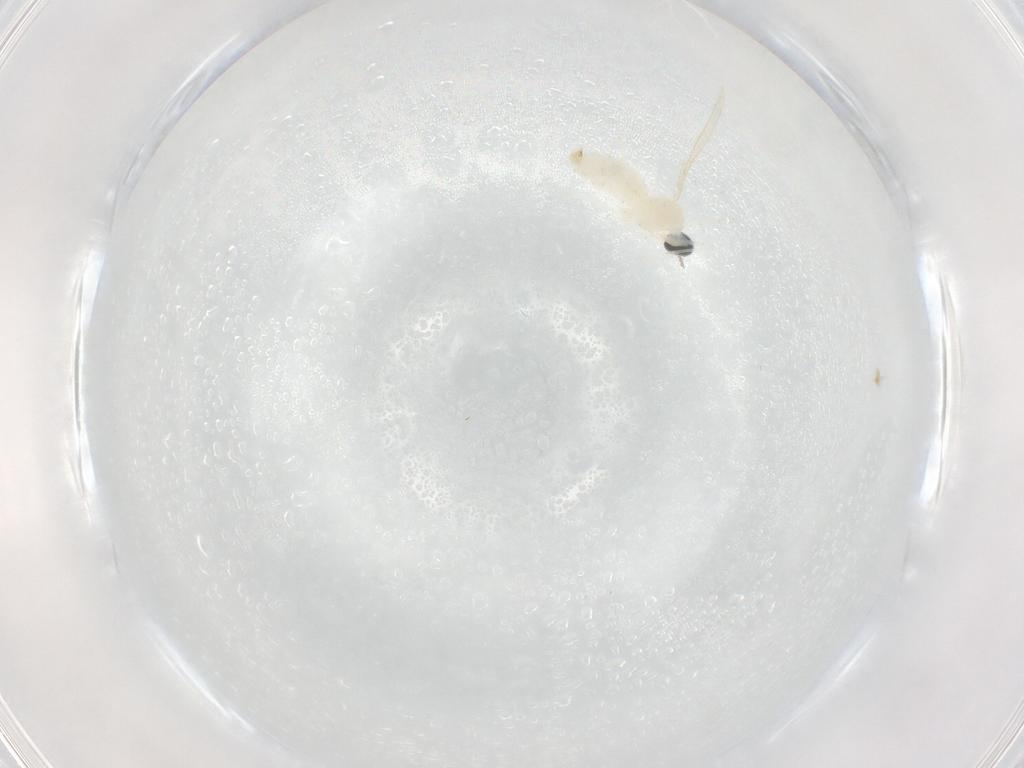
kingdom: Animalia
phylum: Arthropoda
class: Insecta
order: Diptera
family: Cecidomyiidae
